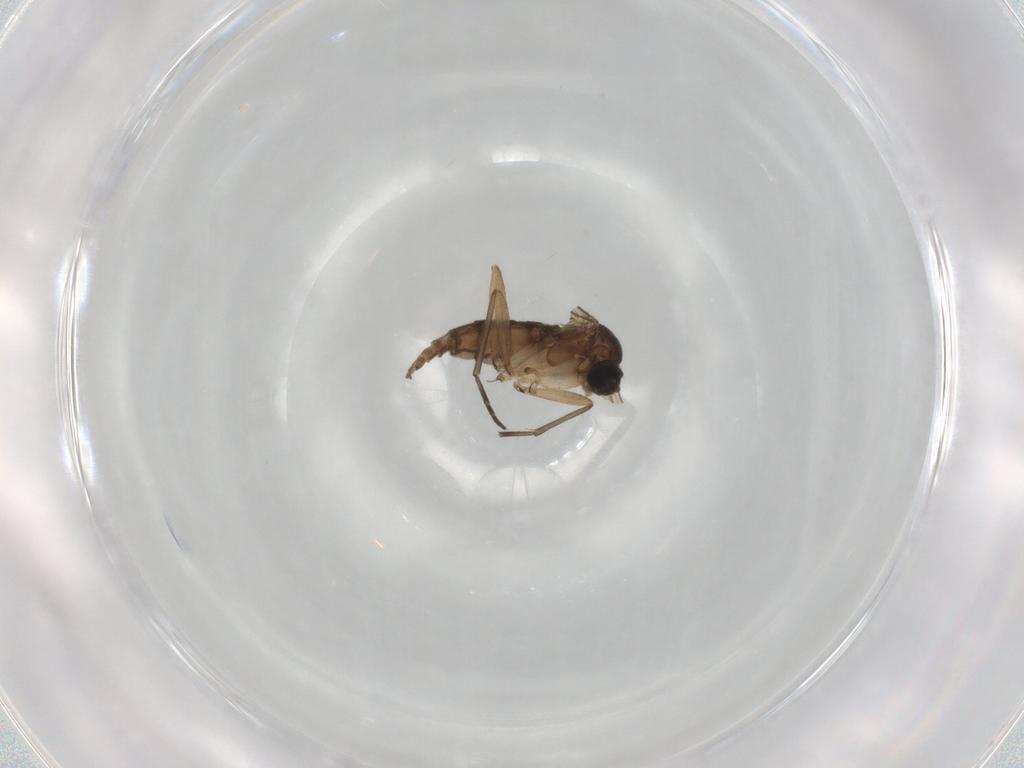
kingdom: Animalia
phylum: Arthropoda
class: Insecta
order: Diptera
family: Sciaridae
